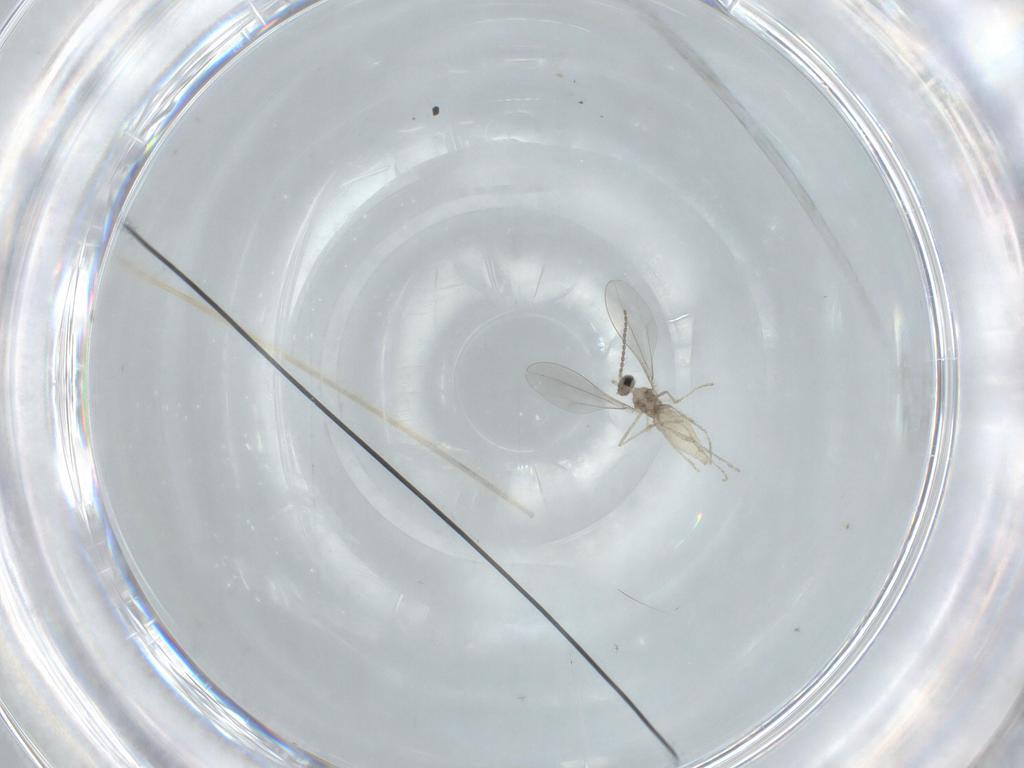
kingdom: Animalia
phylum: Arthropoda
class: Insecta
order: Diptera
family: Chironomidae
